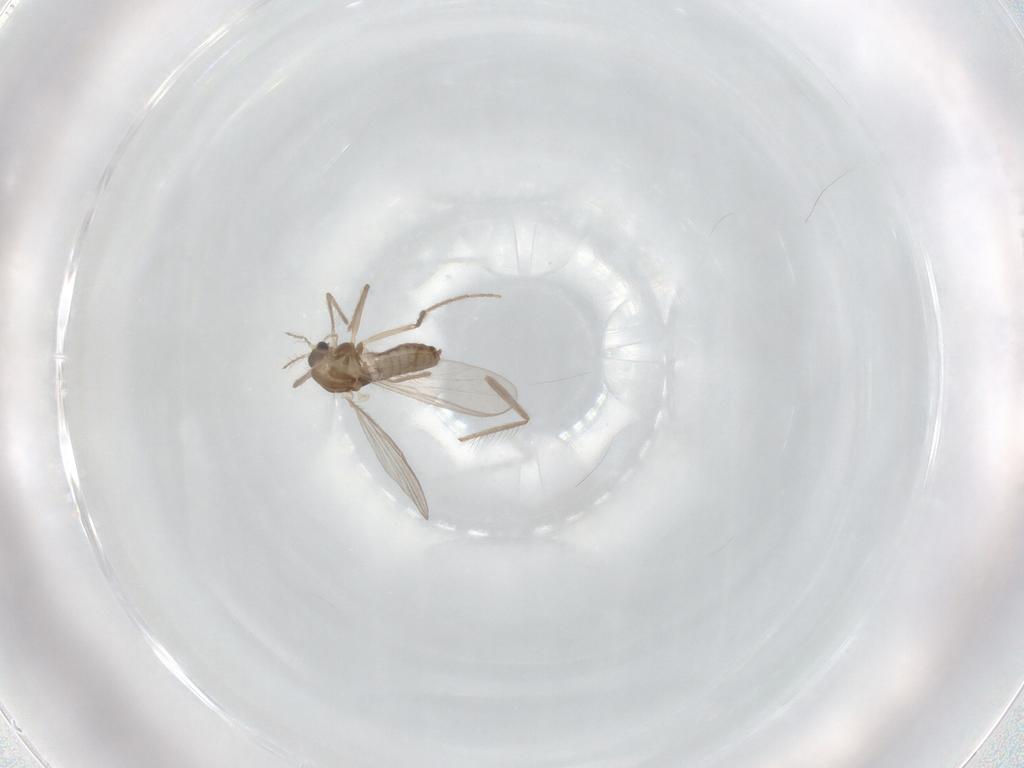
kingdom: Animalia
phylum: Arthropoda
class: Insecta
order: Diptera
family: Chironomidae
